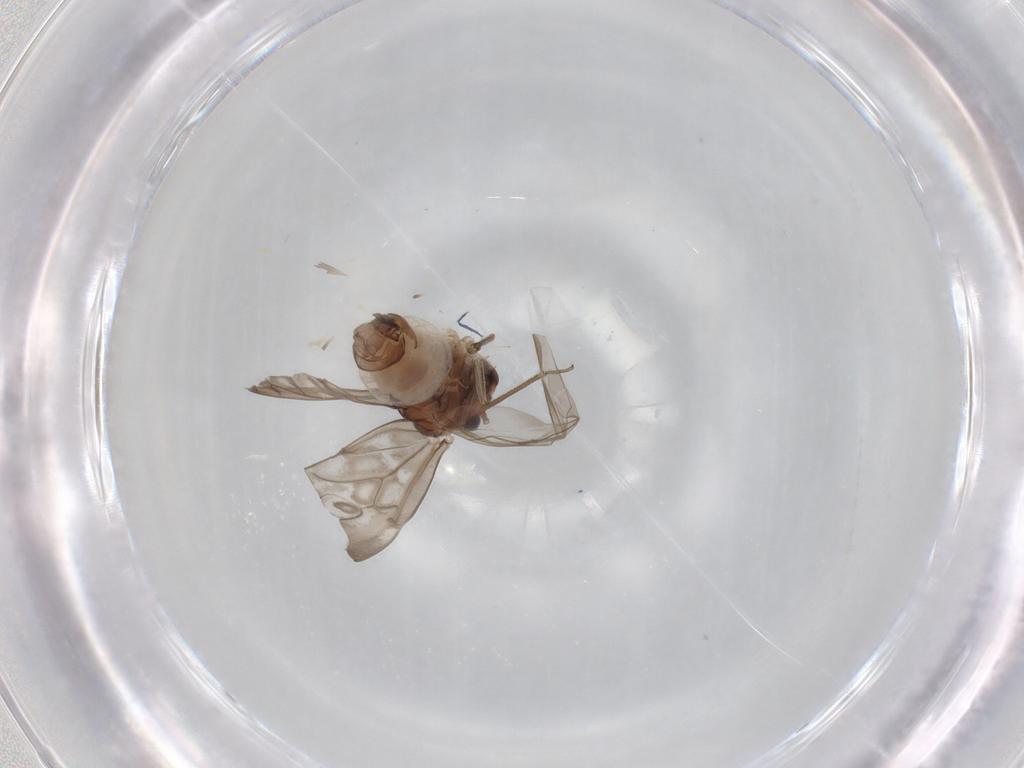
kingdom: Animalia
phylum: Arthropoda
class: Insecta
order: Psocodea
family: Peripsocidae
